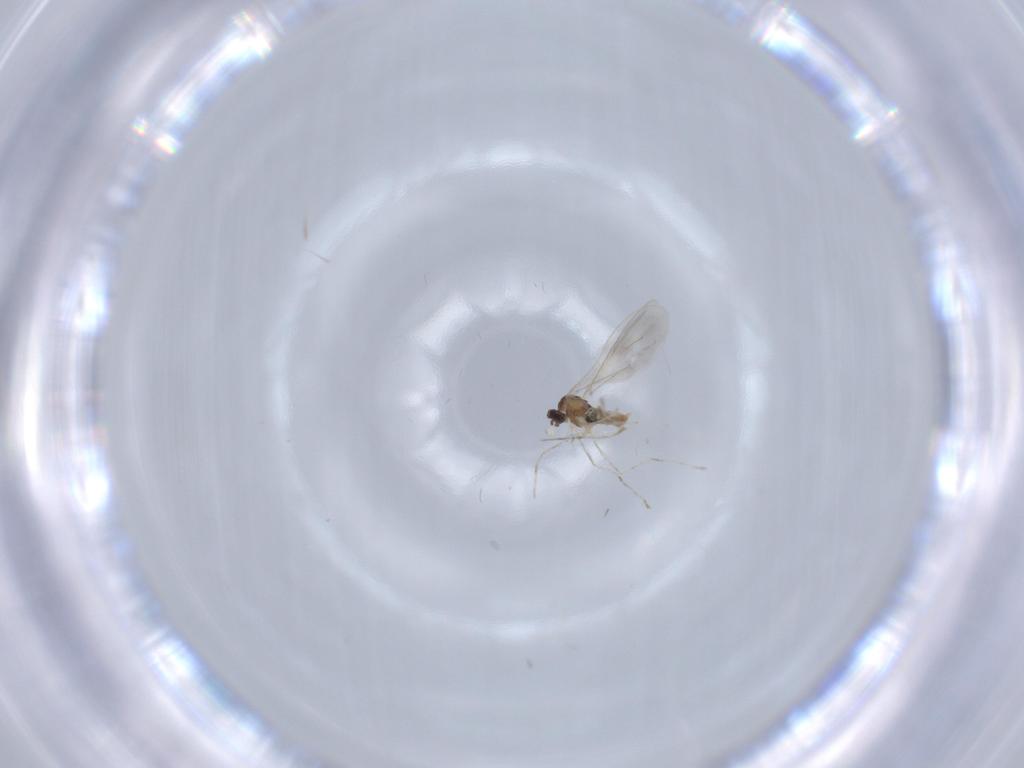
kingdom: Animalia
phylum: Arthropoda
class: Insecta
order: Diptera
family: Cecidomyiidae
